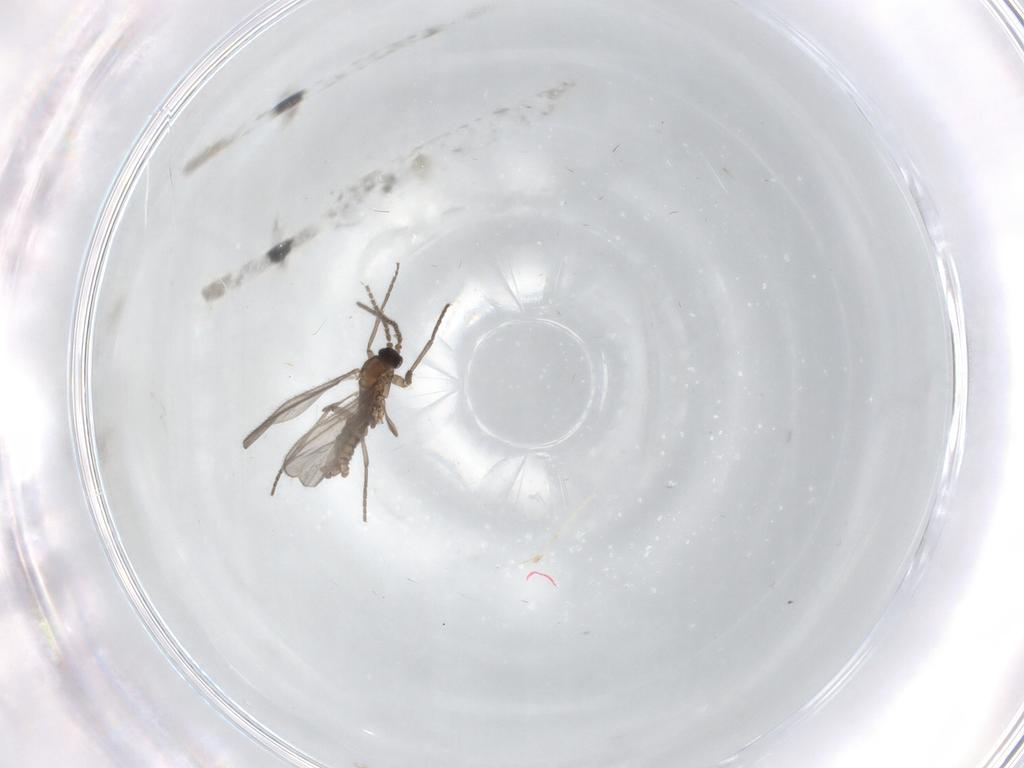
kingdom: Animalia
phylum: Arthropoda
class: Insecta
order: Diptera
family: Sciaridae
